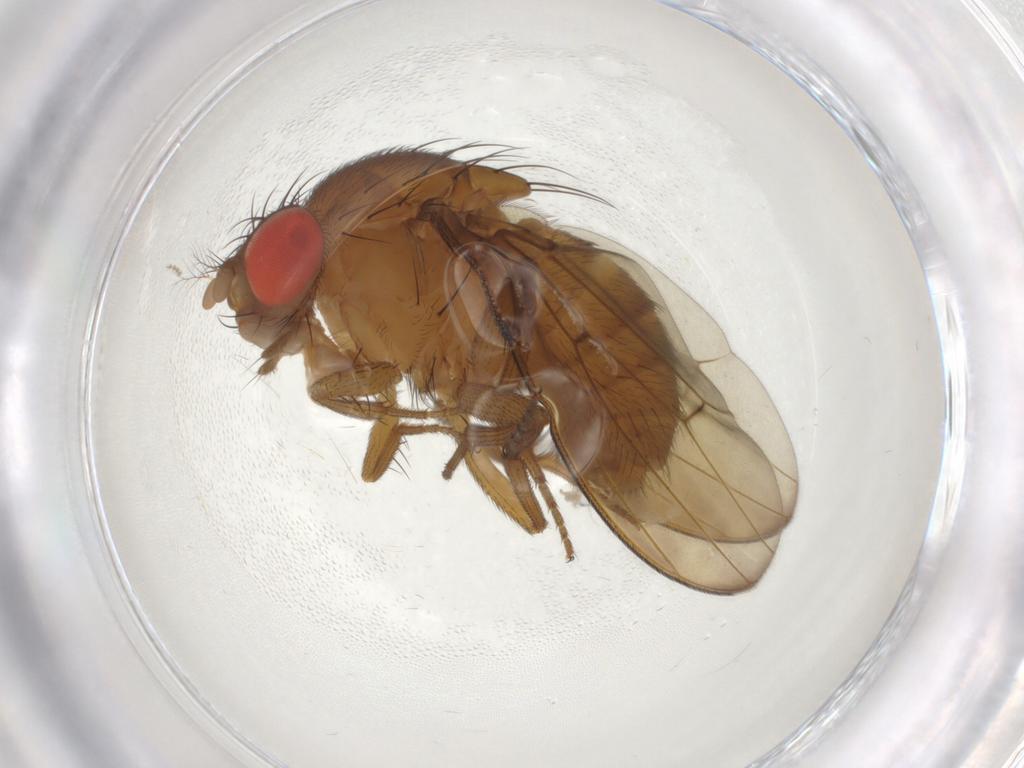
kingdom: Animalia
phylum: Arthropoda
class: Insecta
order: Diptera
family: Drosophilidae
